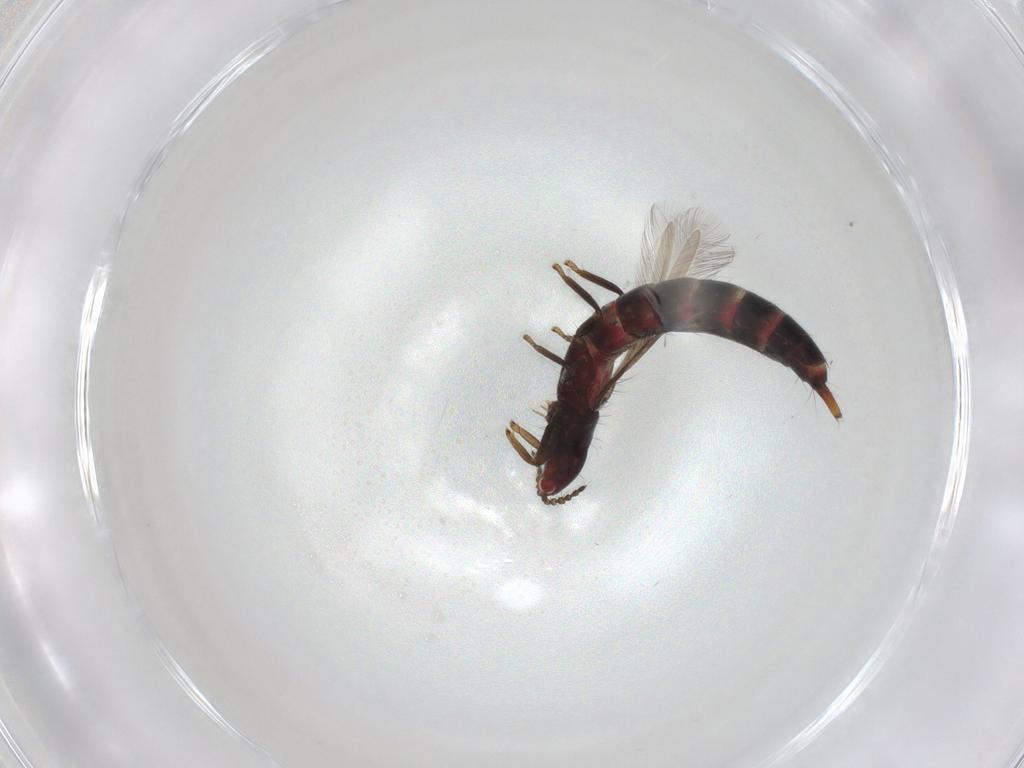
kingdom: Animalia
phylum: Arthropoda
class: Insecta
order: Thysanoptera
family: Phlaeothripidae
